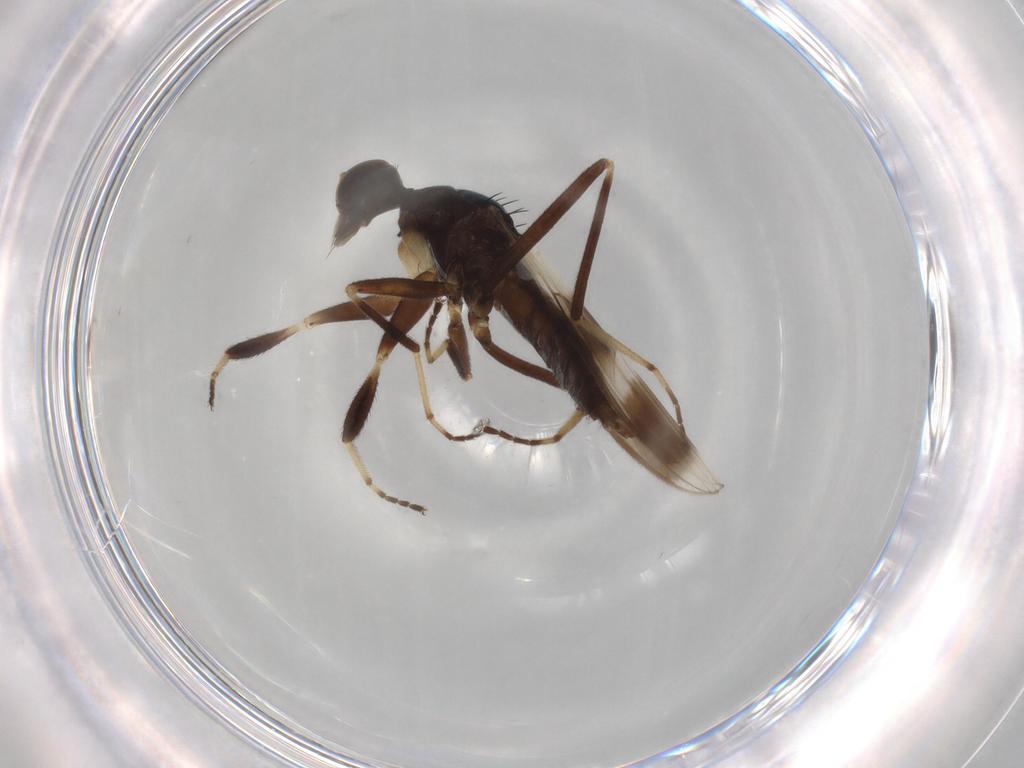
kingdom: Animalia
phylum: Arthropoda
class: Insecta
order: Diptera
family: Hybotidae
